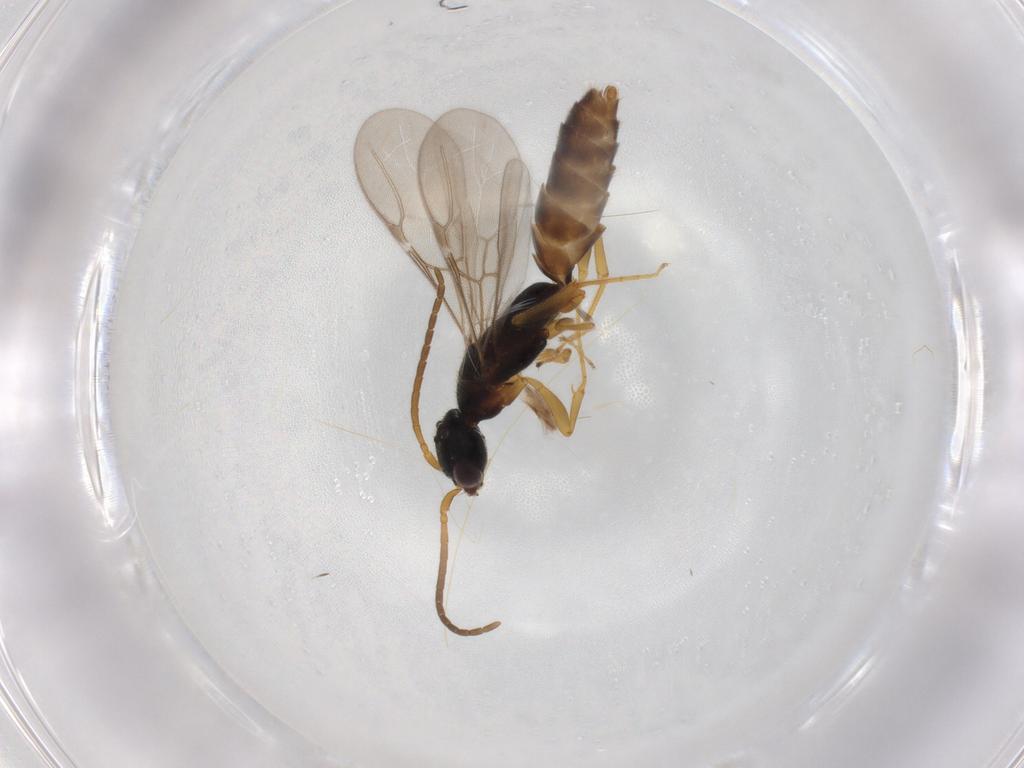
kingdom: Animalia
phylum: Arthropoda
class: Insecta
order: Hymenoptera
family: Bethylidae
